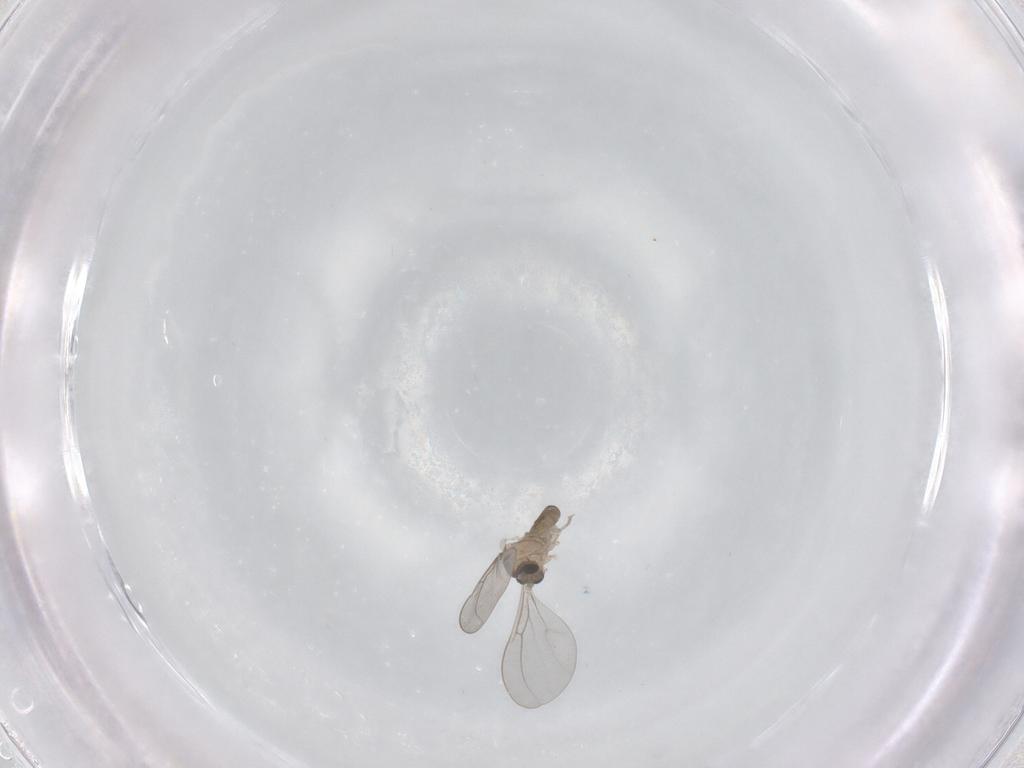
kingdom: Animalia
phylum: Arthropoda
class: Insecta
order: Diptera
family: Cecidomyiidae
